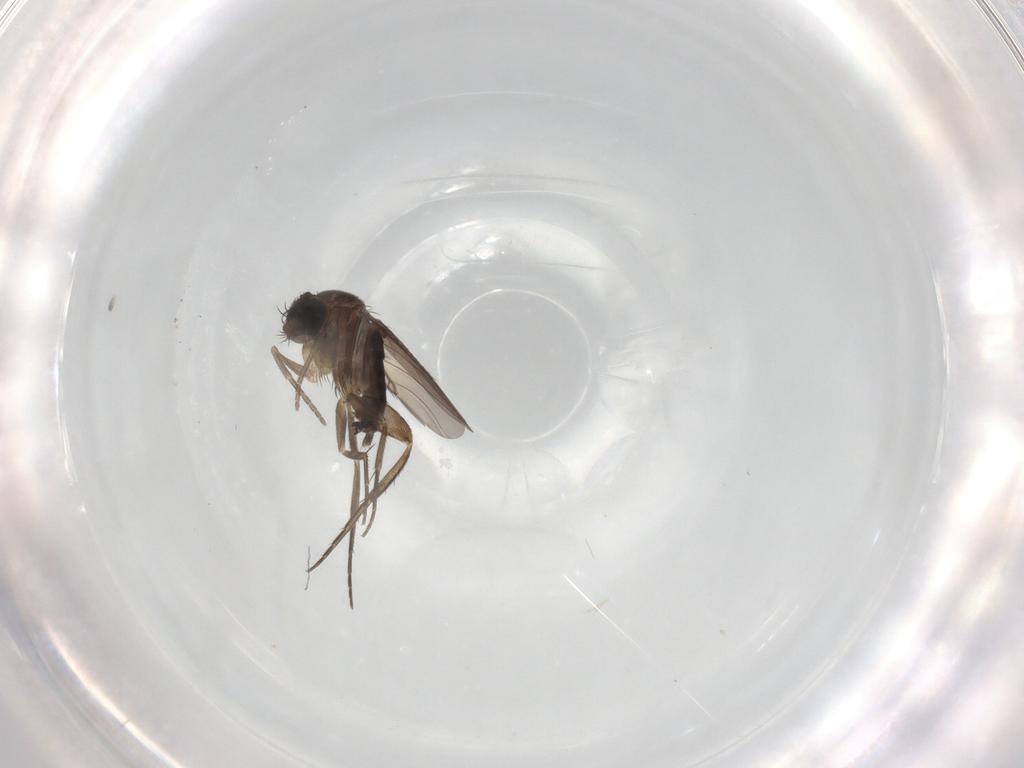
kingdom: Animalia
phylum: Arthropoda
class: Insecta
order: Diptera
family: Phoridae
